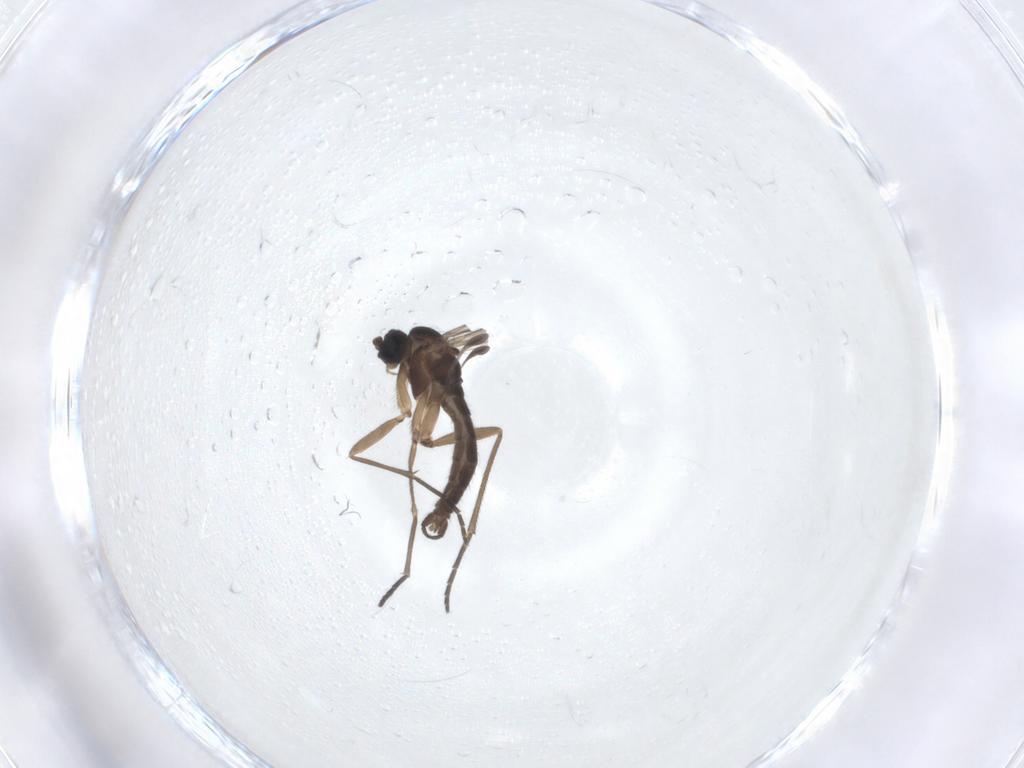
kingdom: Animalia
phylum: Arthropoda
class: Insecta
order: Diptera
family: Sciaridae
